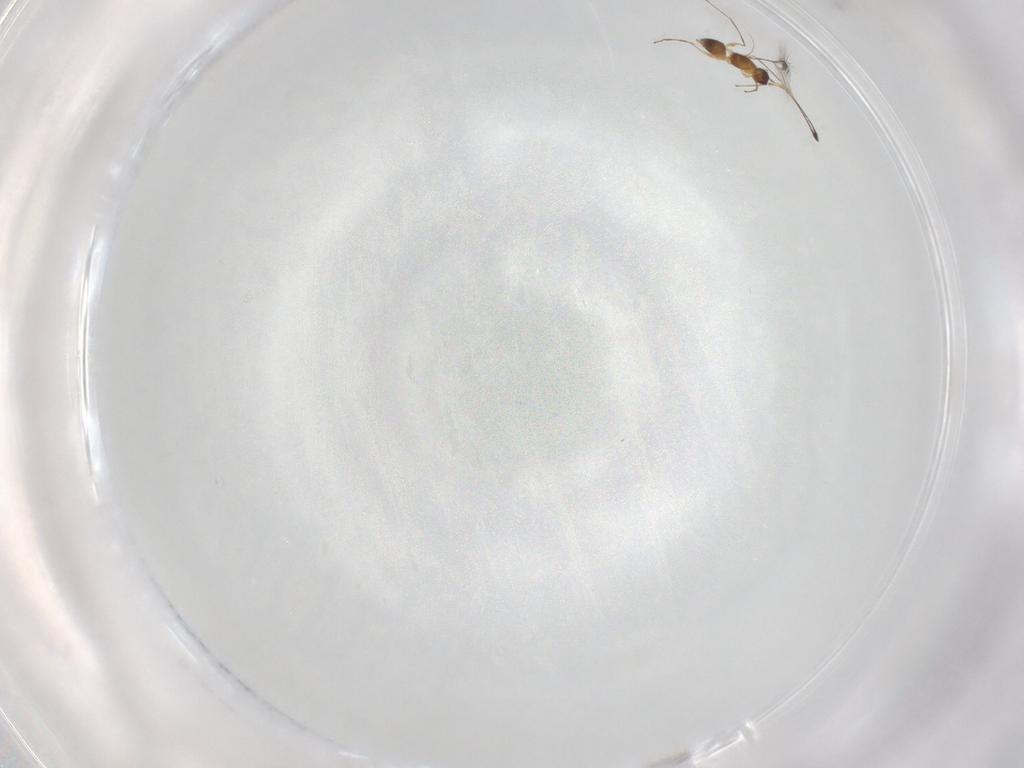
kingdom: Animalia
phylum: Arthropoda
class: Insecta
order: Hymenoptera
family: Mymaridae
